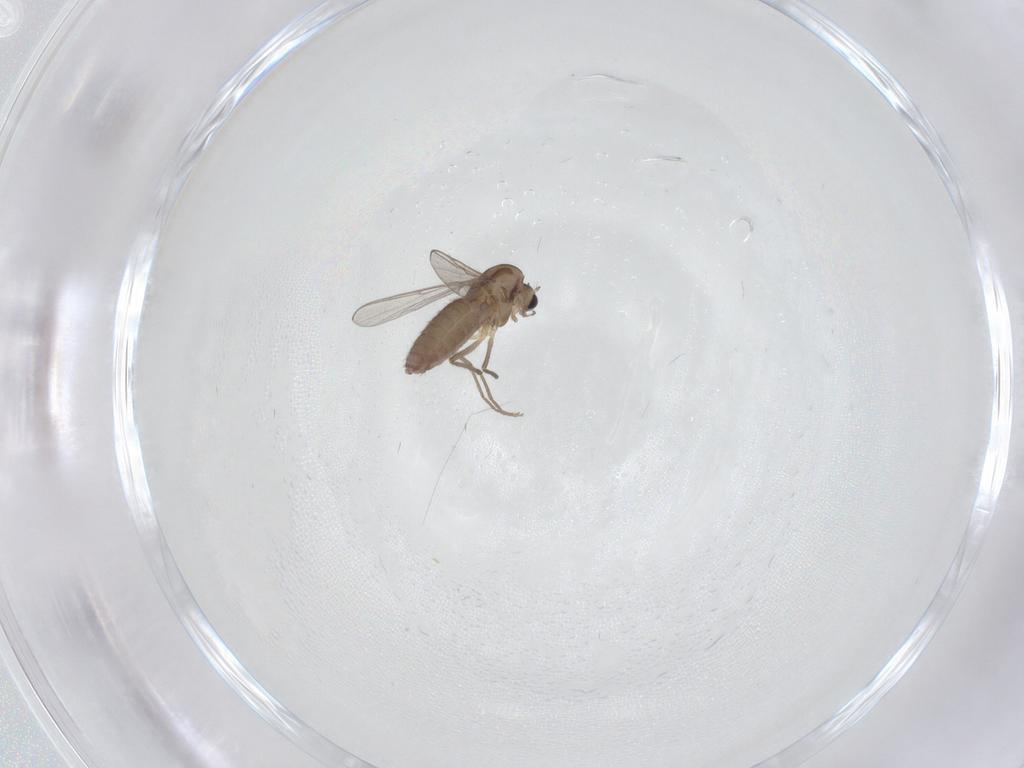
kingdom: Animalia
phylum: Arthropoda
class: Insecta
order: Diptera
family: Chironomidae
